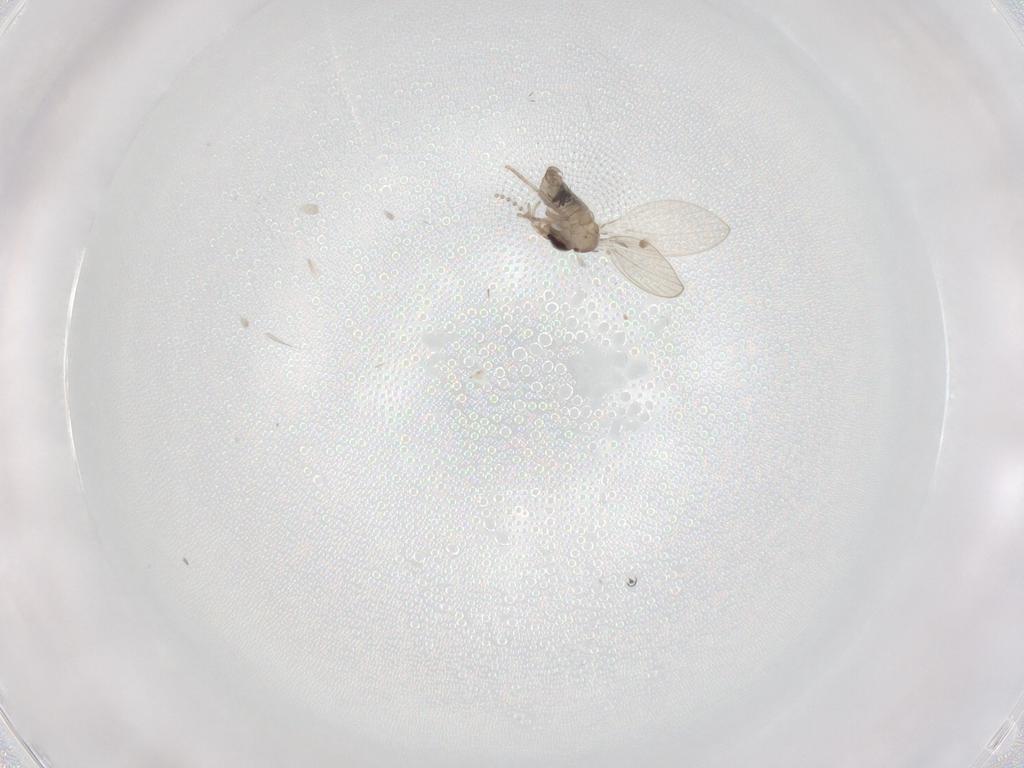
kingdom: Animalia
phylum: Arthropoda
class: Insecta
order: Diptera
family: Psychodidae
